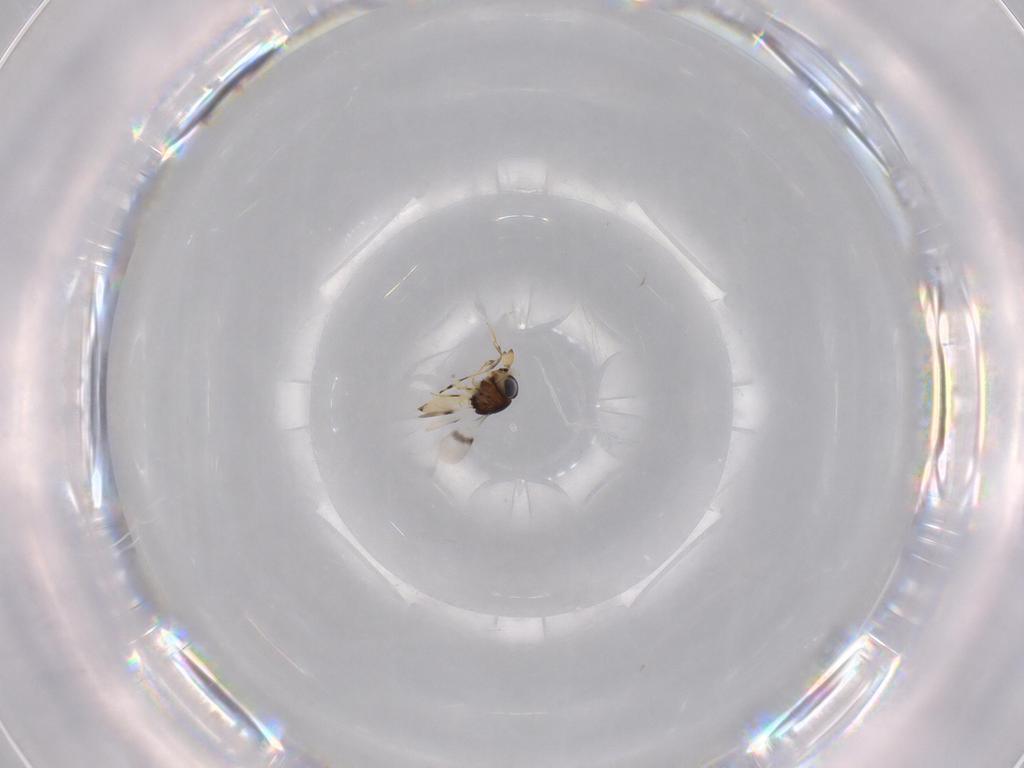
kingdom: Animalia
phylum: Arthropoda
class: Insecta
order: Hymenoptera
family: Scelionidae
